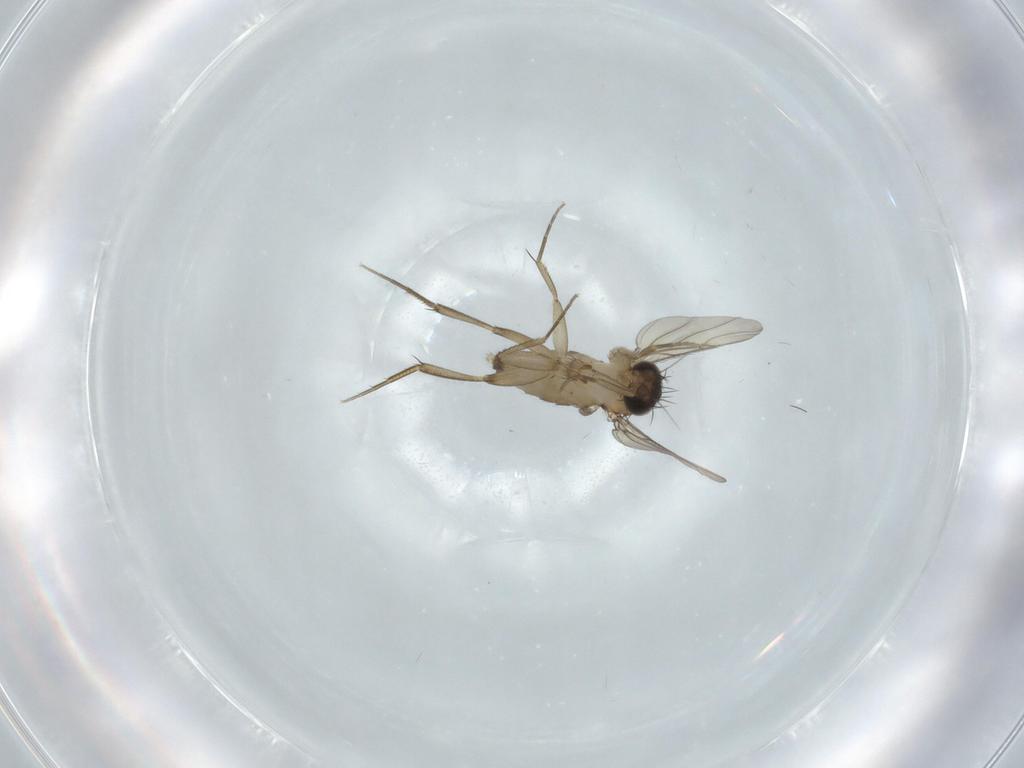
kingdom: Animalia
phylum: Arthropoda
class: Insecta
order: Diptera
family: Phoridae
